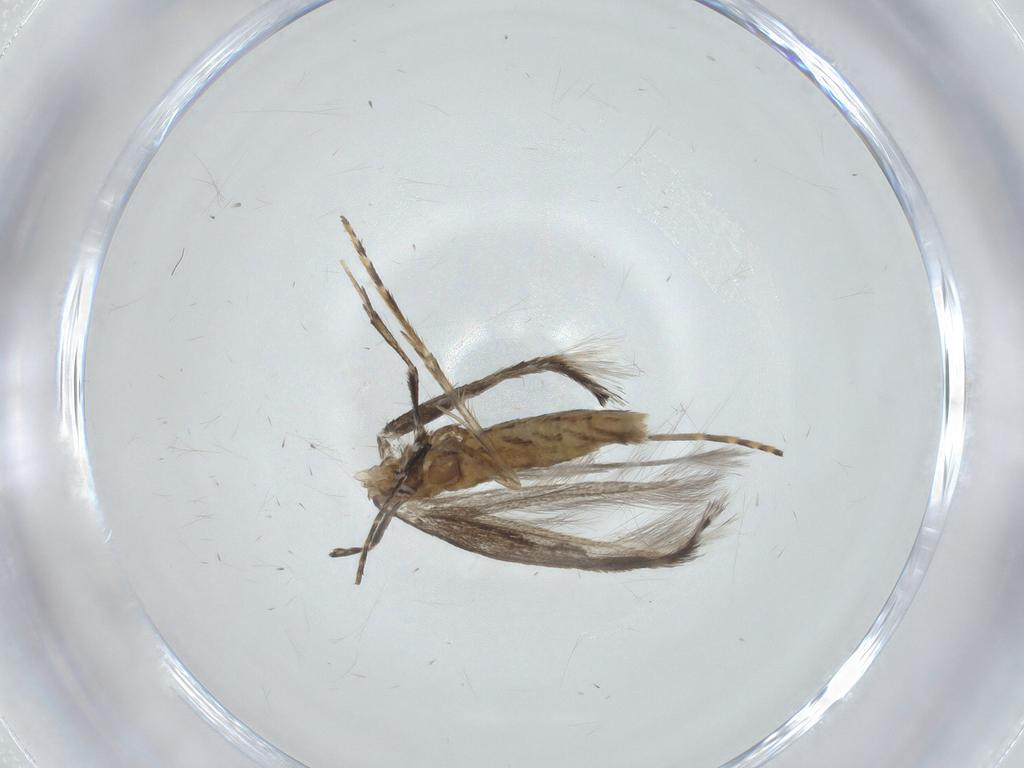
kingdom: Animalia
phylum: Arthropoda
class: Insecta
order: Lepidoptera
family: Gracillariidae
